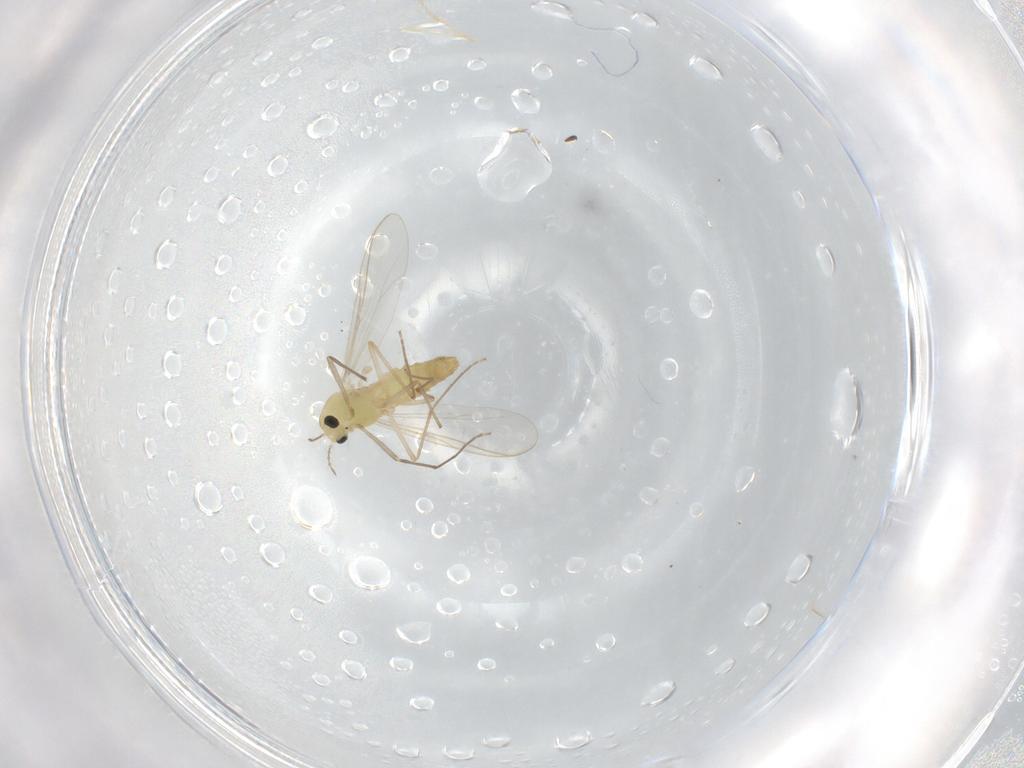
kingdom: Animalia
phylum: Arthropoda
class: Insecta
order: Diptera
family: Chironomidae
